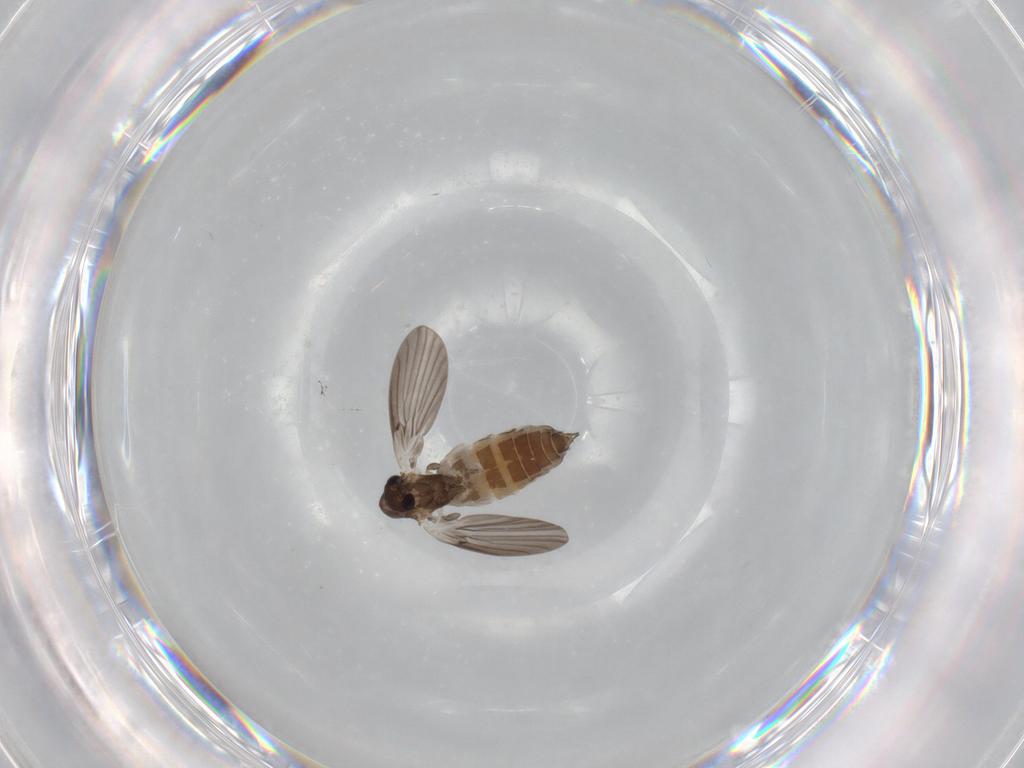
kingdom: Animalia
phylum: Arthropoda
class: Insecta
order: Diptera
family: Chironomidae
